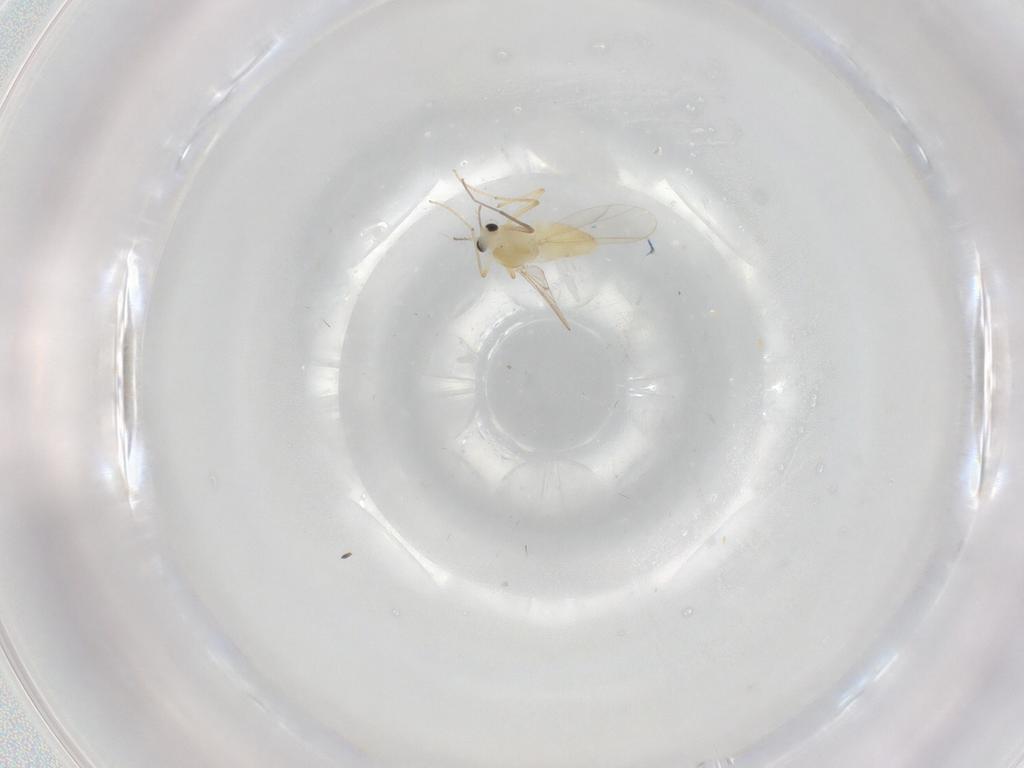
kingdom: Animalia
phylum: Arthropoda
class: Insecta
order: Diptera
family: Chironomidae
